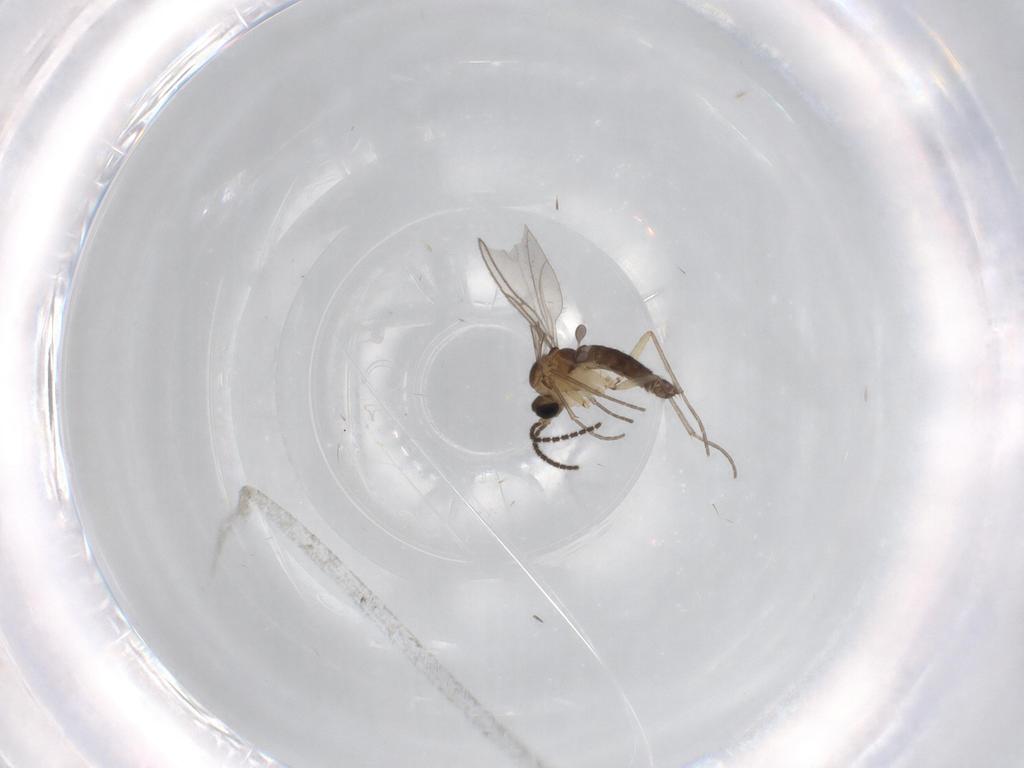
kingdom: Animalia
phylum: Arthropoda
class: Insecta
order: Diptera
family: Sciaridae
